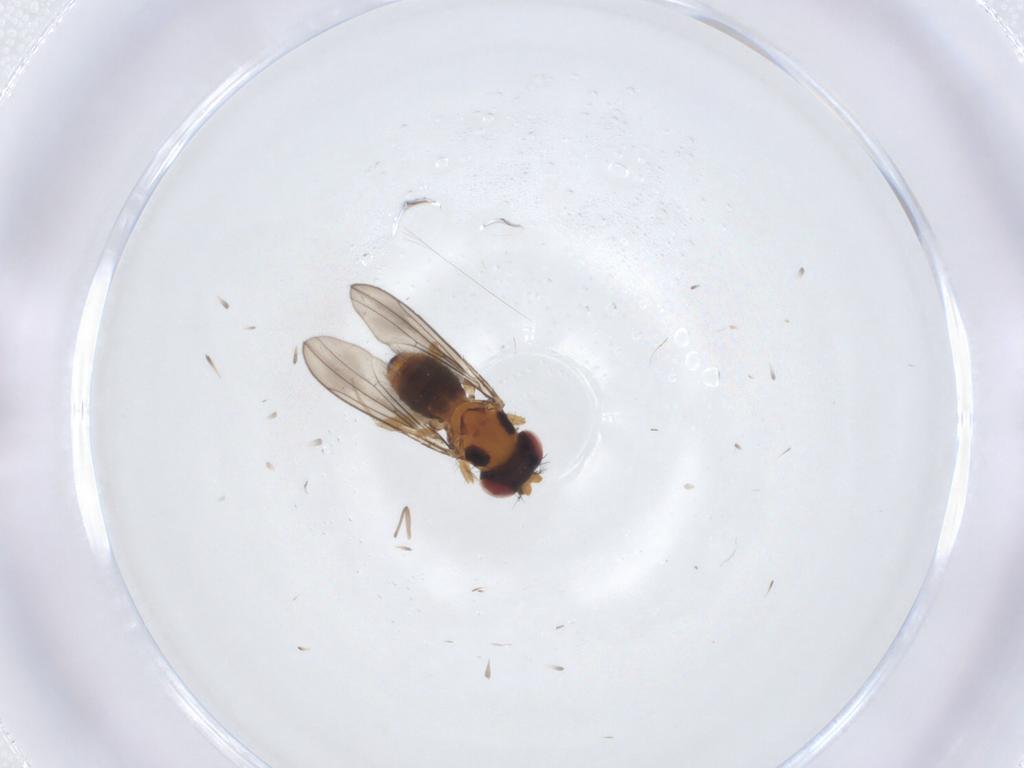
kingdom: Animalia
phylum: Arthropoda
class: Insecta
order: Diptera
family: Drosophilidae
